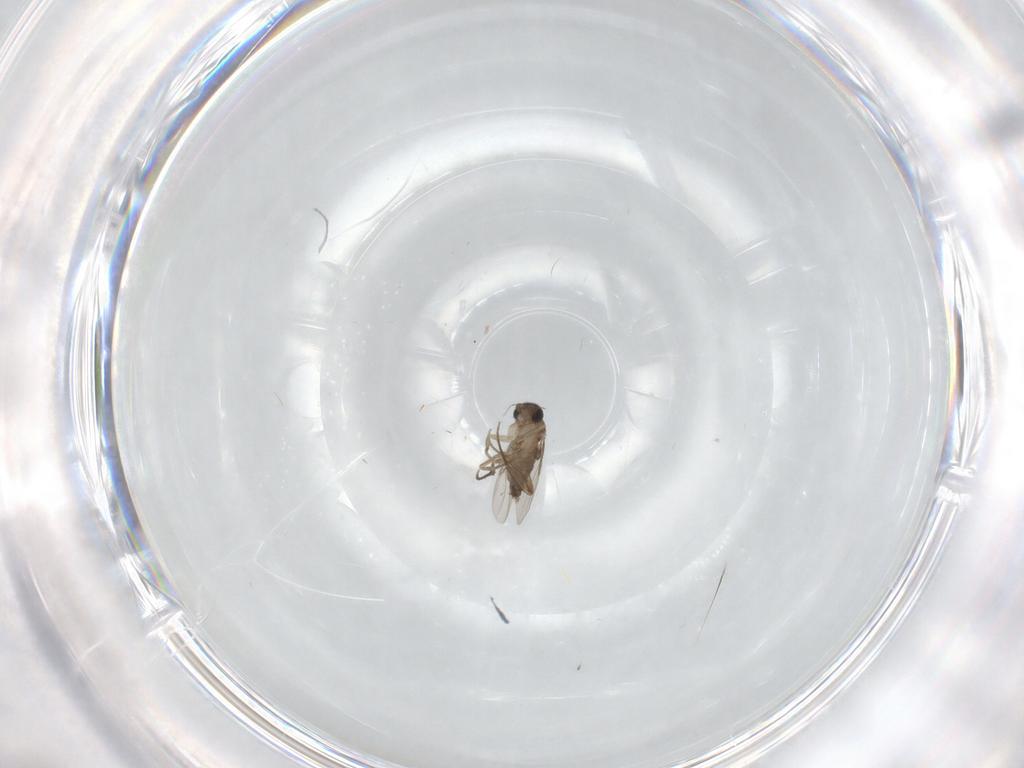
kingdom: Animalia
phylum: Arthropoda
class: Insecta
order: Diptera
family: Phoridae
